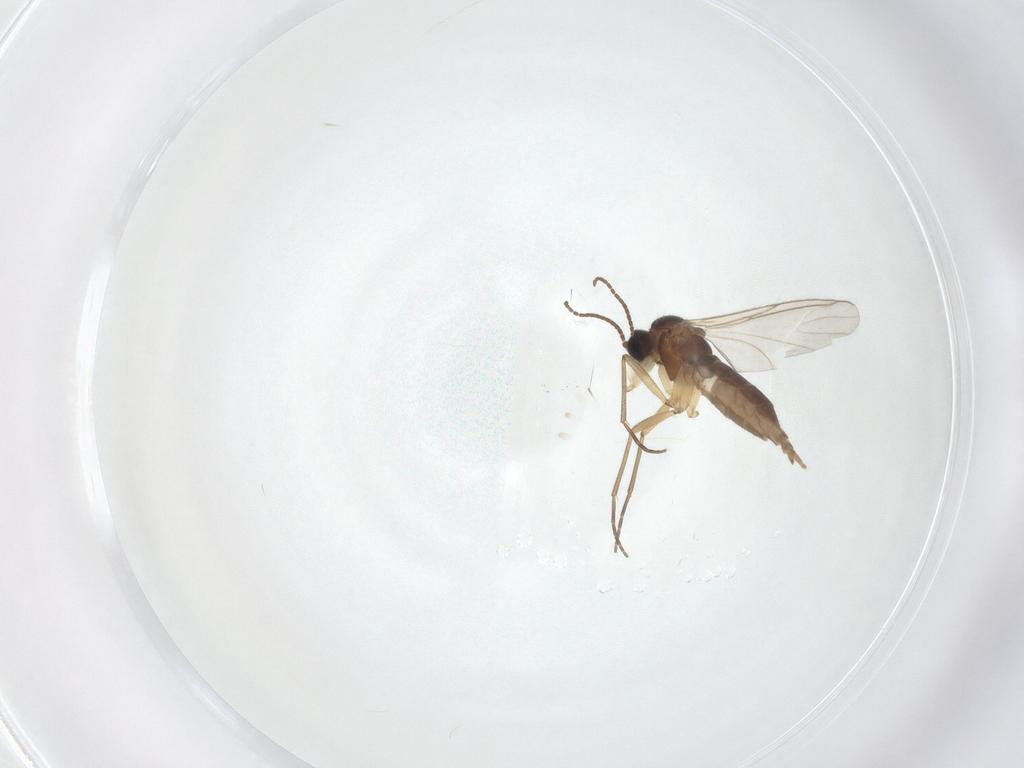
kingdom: Animalia
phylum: Arthropoda
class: Insecta
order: Diptera
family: Sciaridae
